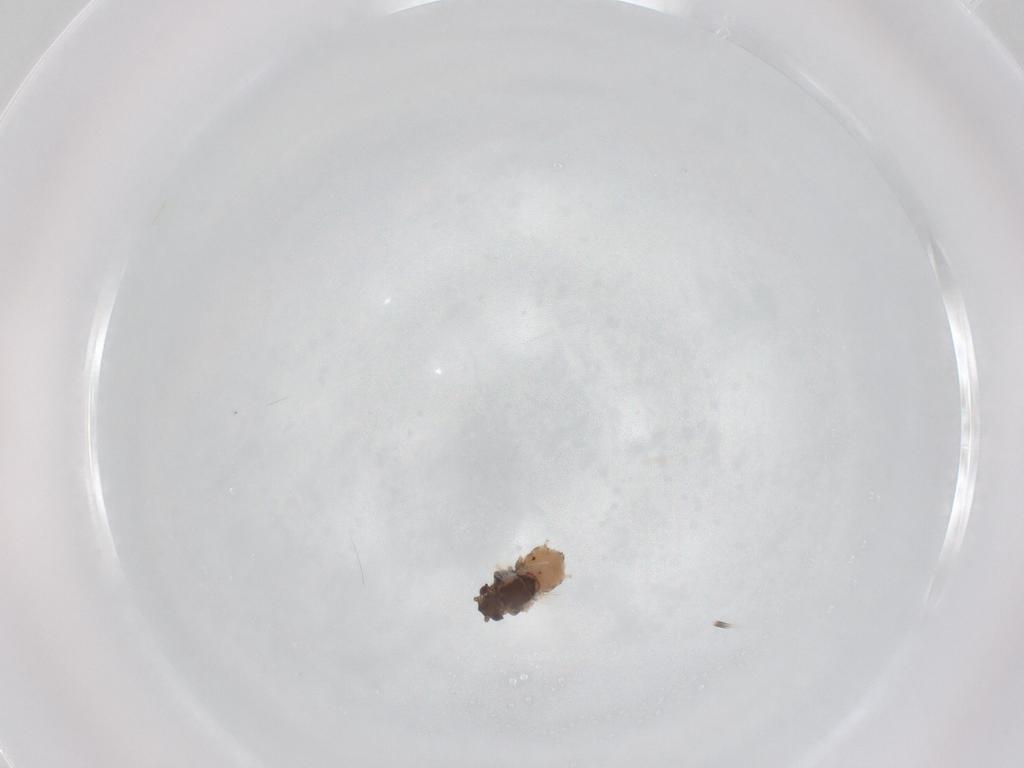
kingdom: Animalia
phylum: Arthropoda
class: Insecta
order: Hemiptera
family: Aphididae
